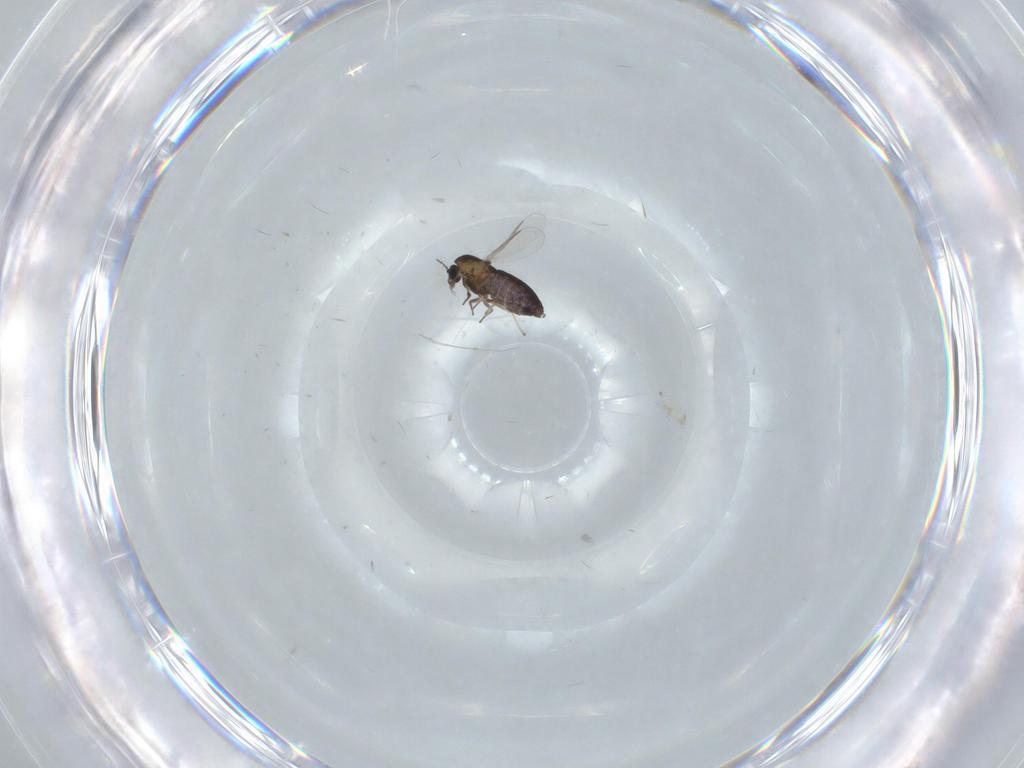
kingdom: Animalia
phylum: Arthropoda
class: Insecta
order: Diptera
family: Chironomidae
